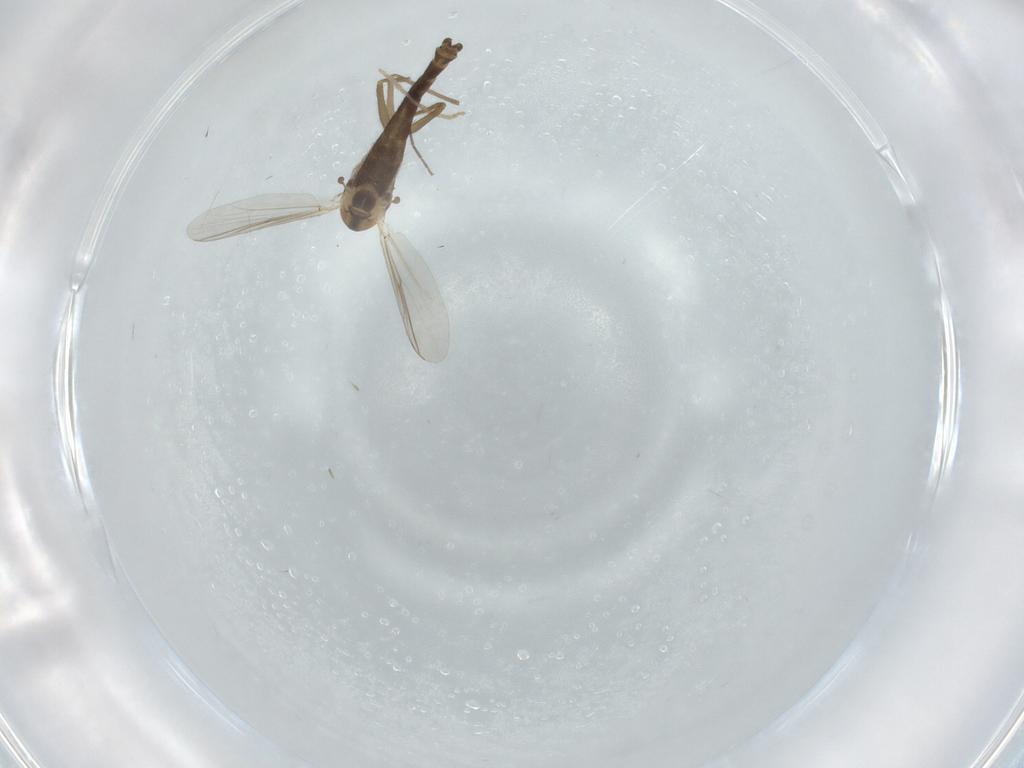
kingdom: Animalia
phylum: Arthropoda
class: Insecta
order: Diptera
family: Chironomidae
